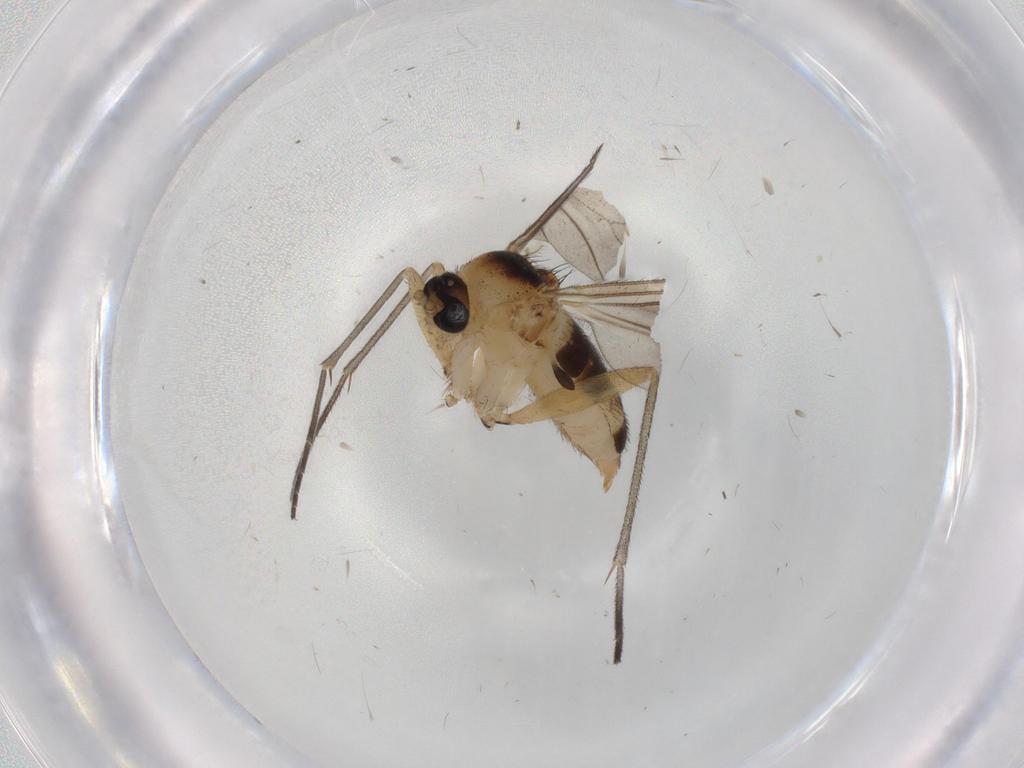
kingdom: Animalia
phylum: Arthropoda
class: Insecta
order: Diptera
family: Sciaridae
